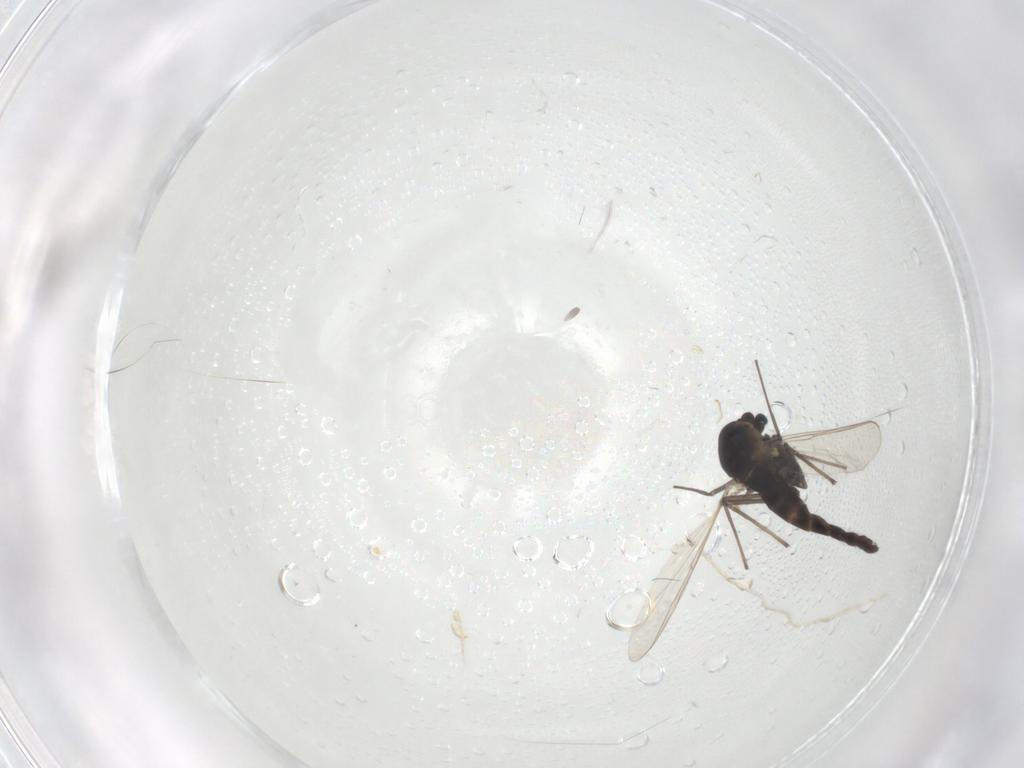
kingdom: Animalia
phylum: Arthropoda
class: Insecta
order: Diptera
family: Chironomidae
